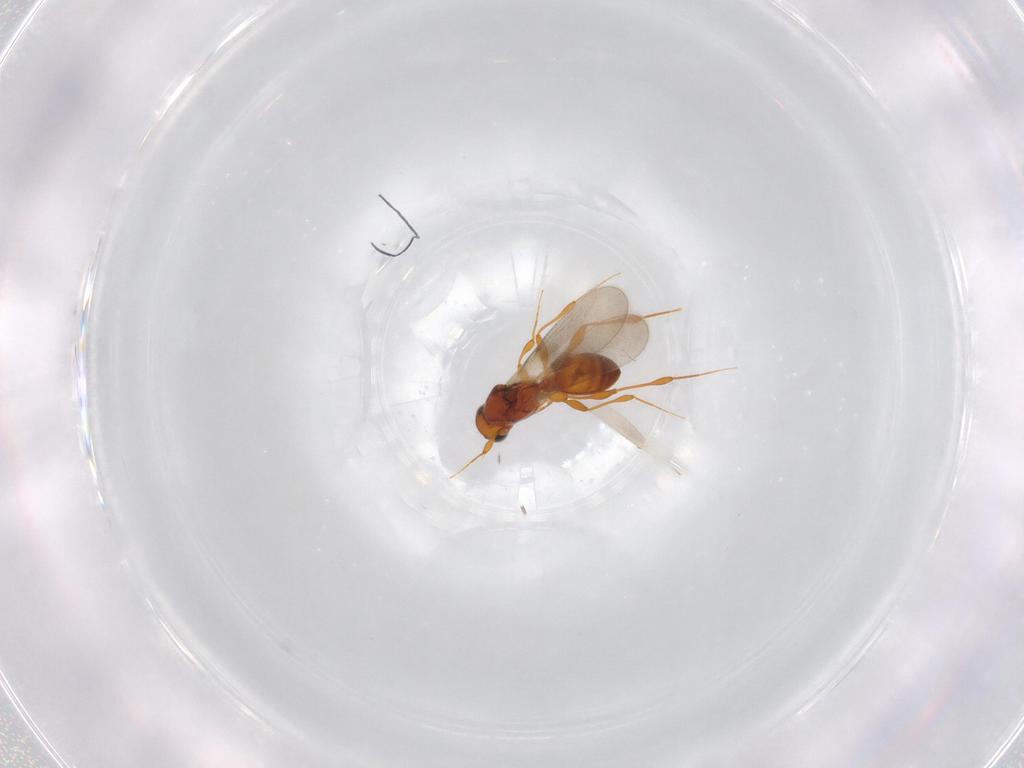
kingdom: Animalia
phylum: Arthropoda
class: Insecta
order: Hymenoptera
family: Platygastridae
